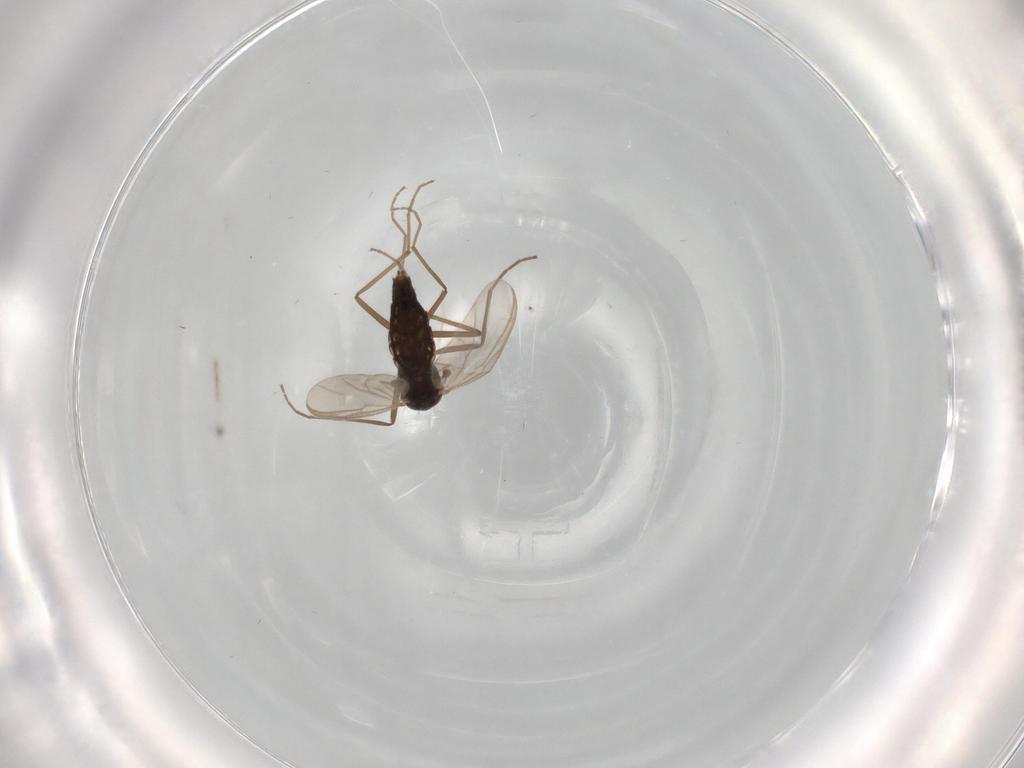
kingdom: Animalia
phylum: Arthropoda
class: Insecta
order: Diptera
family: Chironomidae
